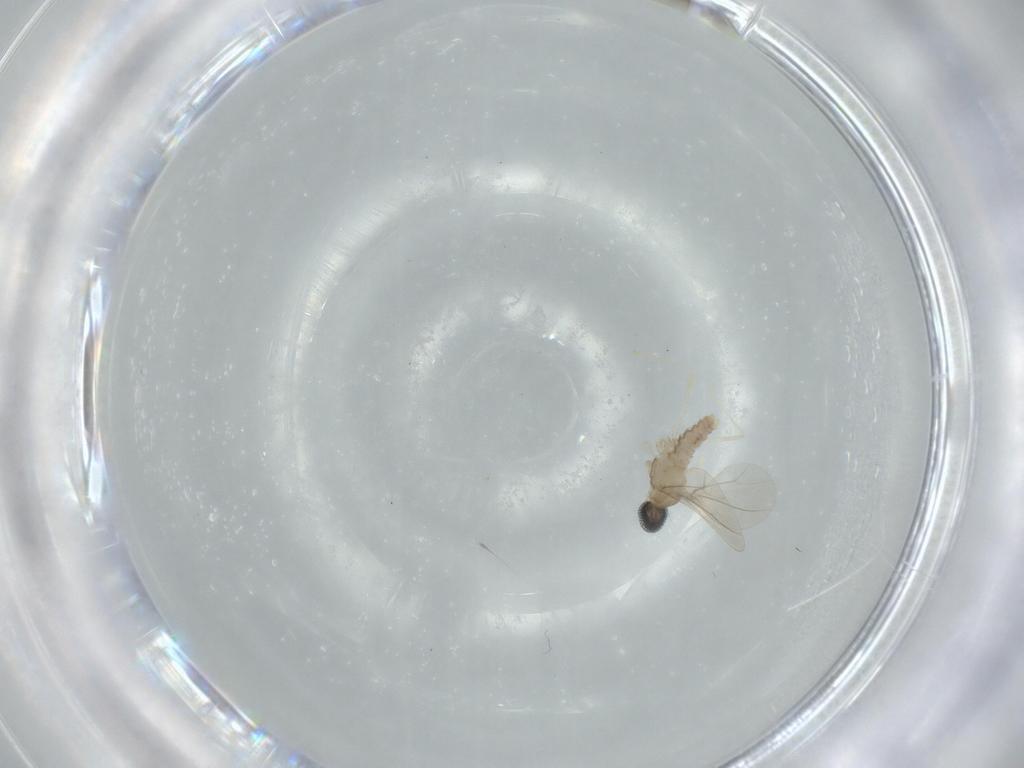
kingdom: Animalia
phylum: Arthropoda
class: Insecta
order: Diptera
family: Cecidomyiidae
